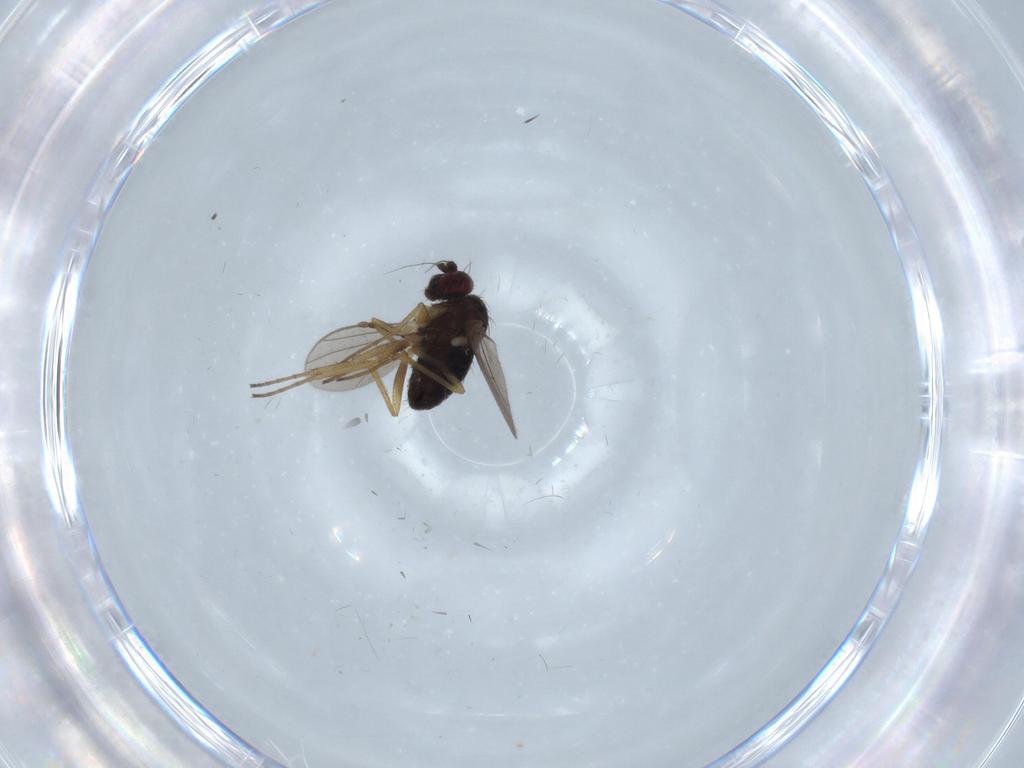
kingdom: Animalia
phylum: Arthropoda
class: Insecta
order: Diptera
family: Dolichopodidae
